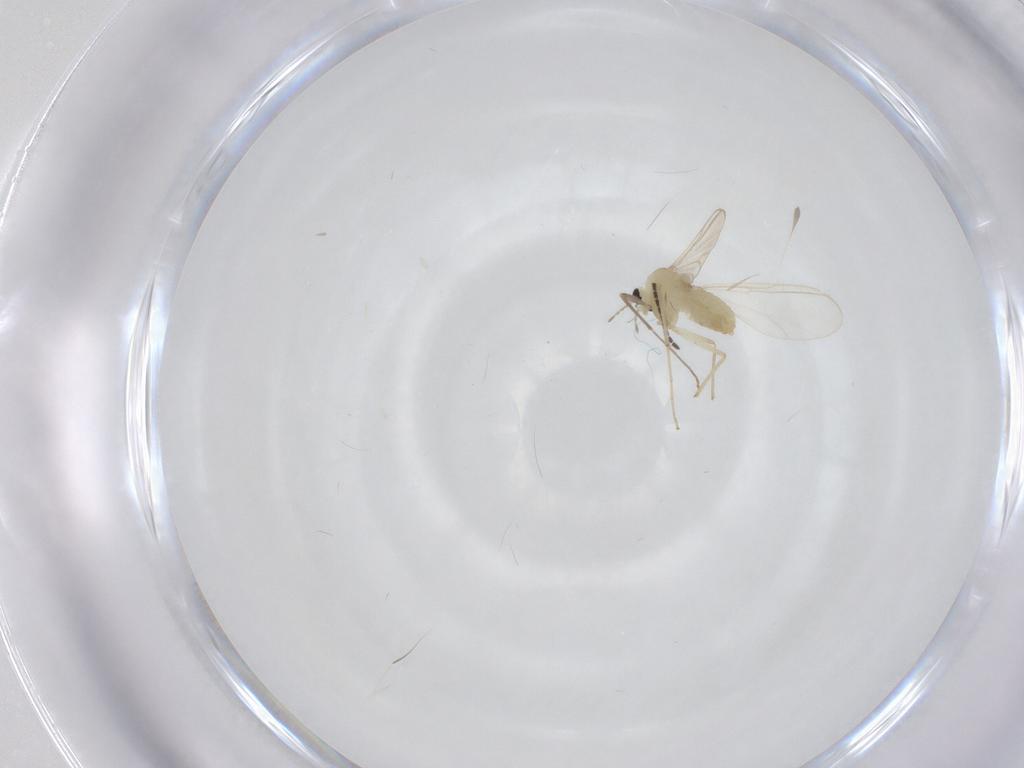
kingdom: Animalia
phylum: Arthropoda
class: Insecta
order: Diptera
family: Sciaridae
